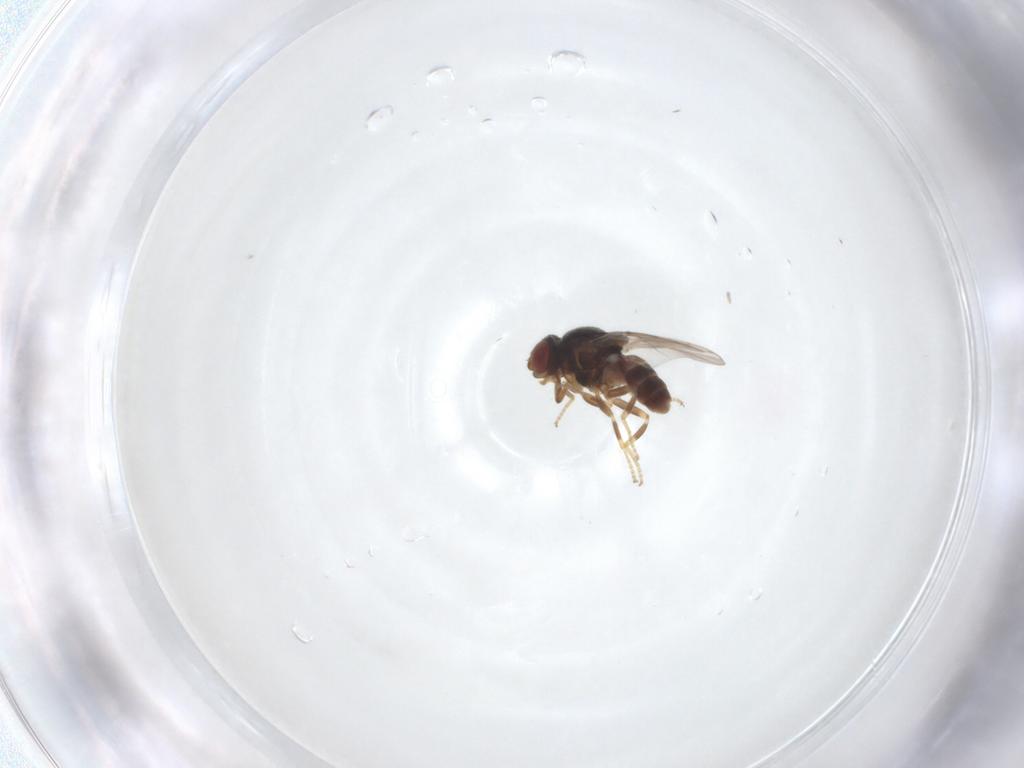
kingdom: Animalia
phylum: Arthropoda
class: Insecta
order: Diptera
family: Chloropidae
